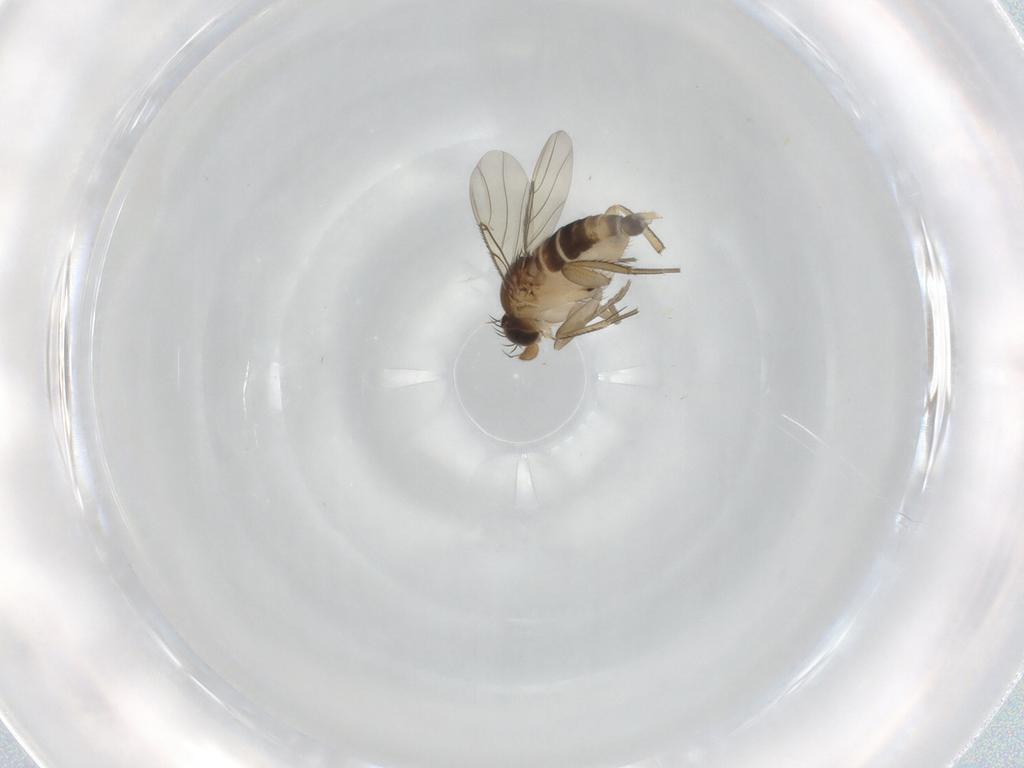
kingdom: Animalia
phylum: Arthropoda
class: Insecta
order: Diptera
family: Phoridae
